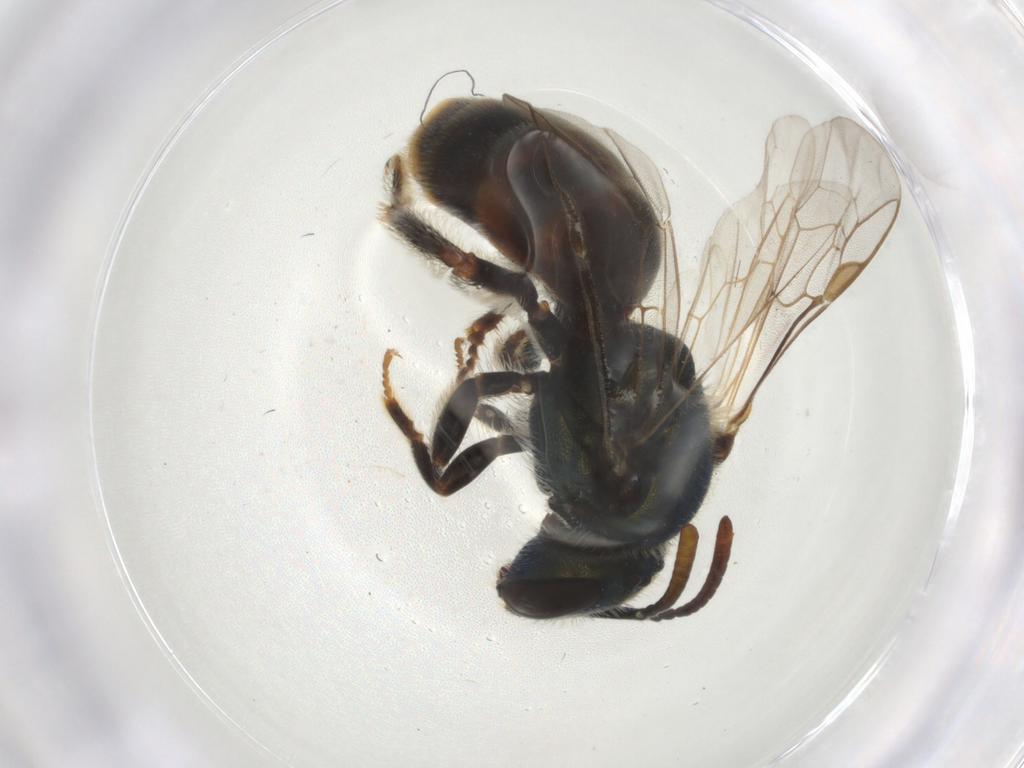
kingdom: Animalia
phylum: Arthropoda
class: Insecta
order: Hymenoptera
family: Halictidae
